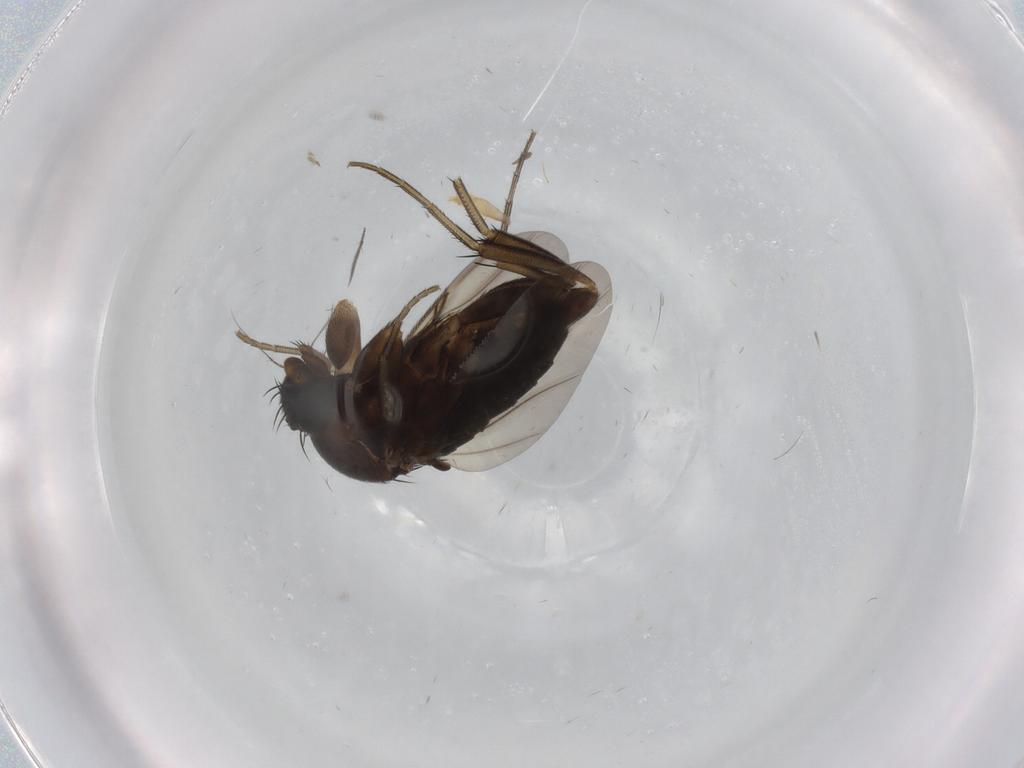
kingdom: Animalia
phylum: Arthropoda
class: Insecta
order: Diptera
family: Phoridae
